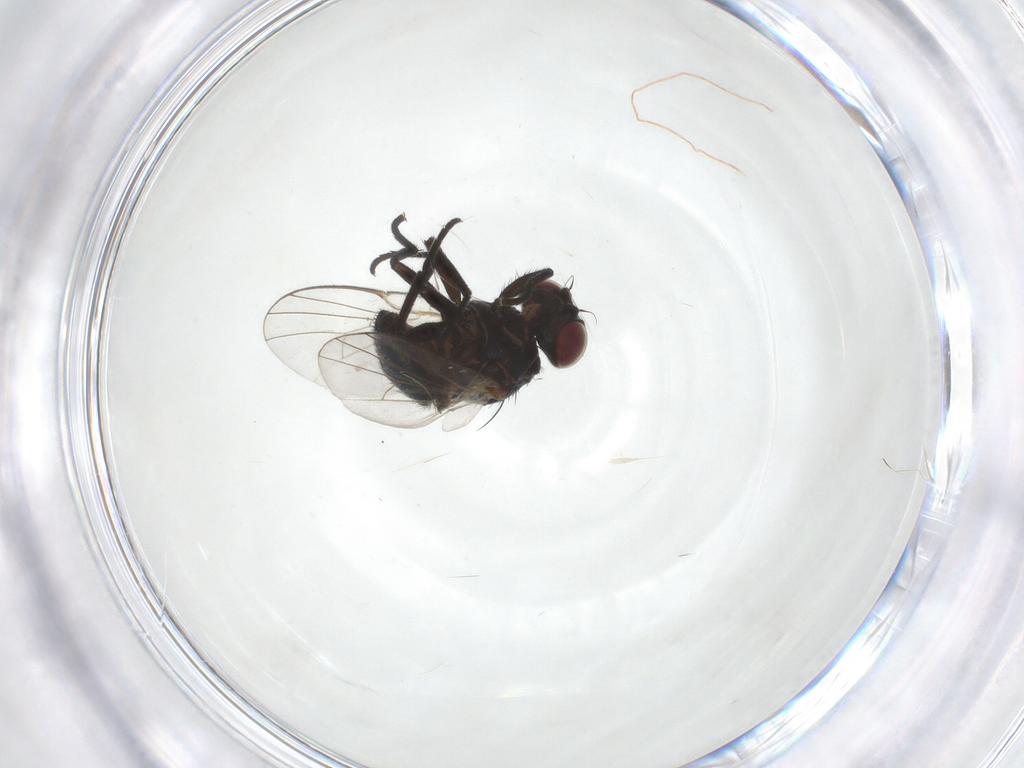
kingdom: Animalia
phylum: Arthropoda
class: Insecta
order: Diptera
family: Agromyzidae
